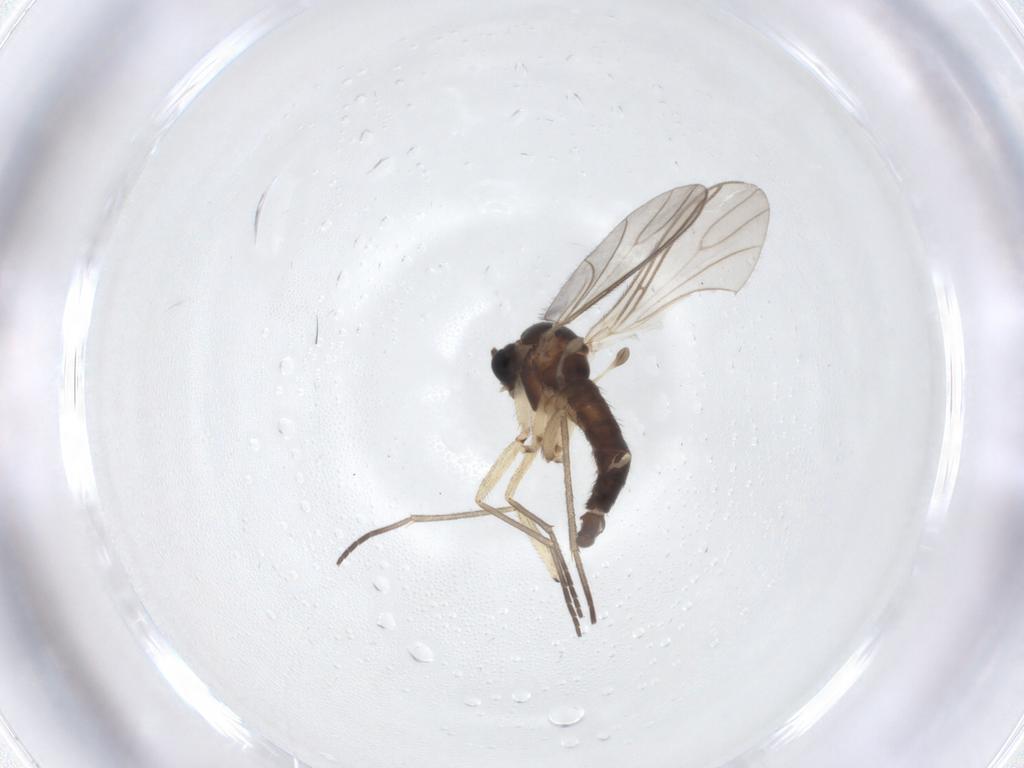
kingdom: Animalia
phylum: Arthropoda
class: Insecta
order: Diptera
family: Sciaridae
